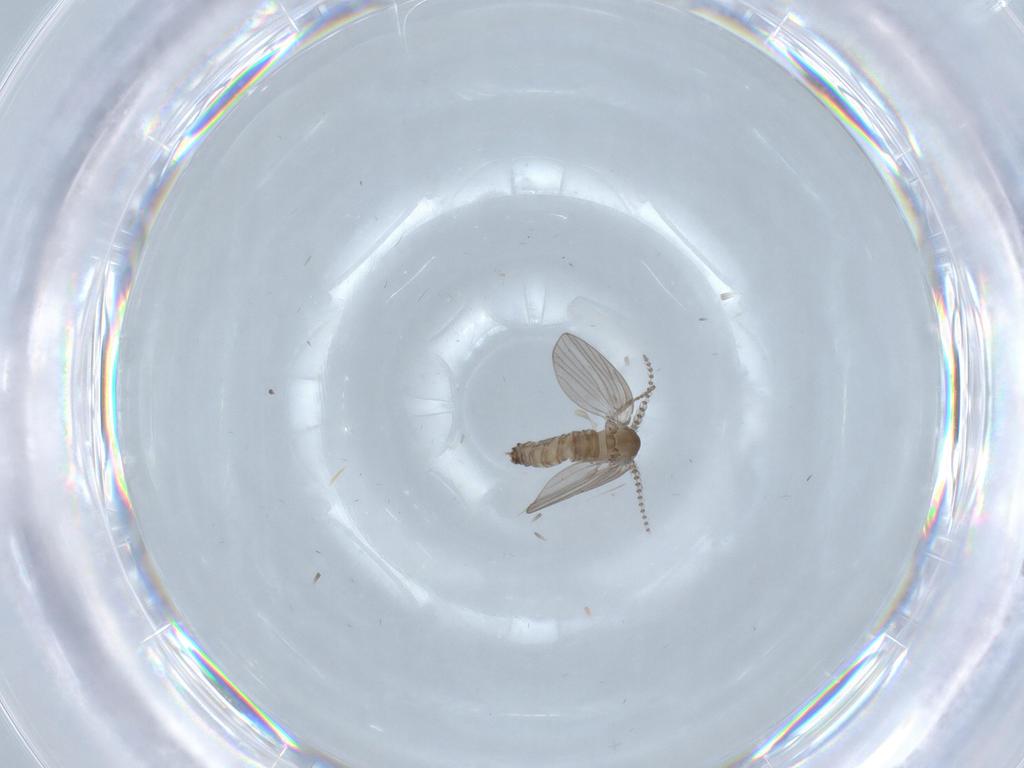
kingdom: Animalia
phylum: Arthropoda
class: Insecta
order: Diptera
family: Psychodidae
